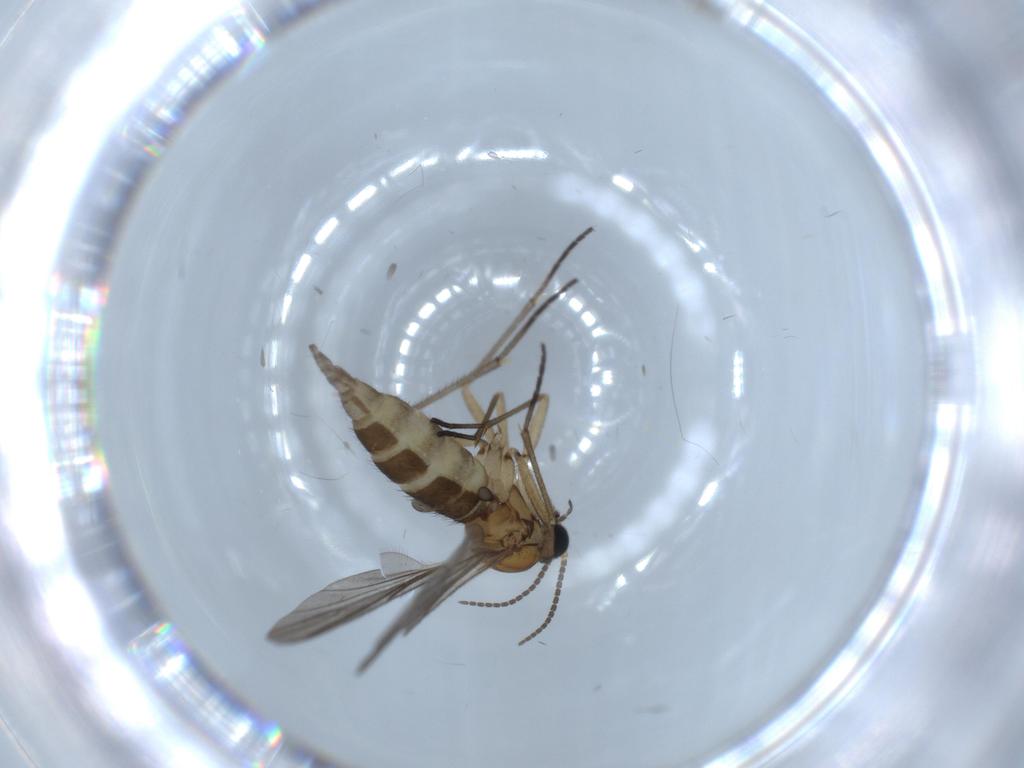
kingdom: Animalia
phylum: Arthropoda
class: Insecta
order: Diptera
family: Sciaridae
